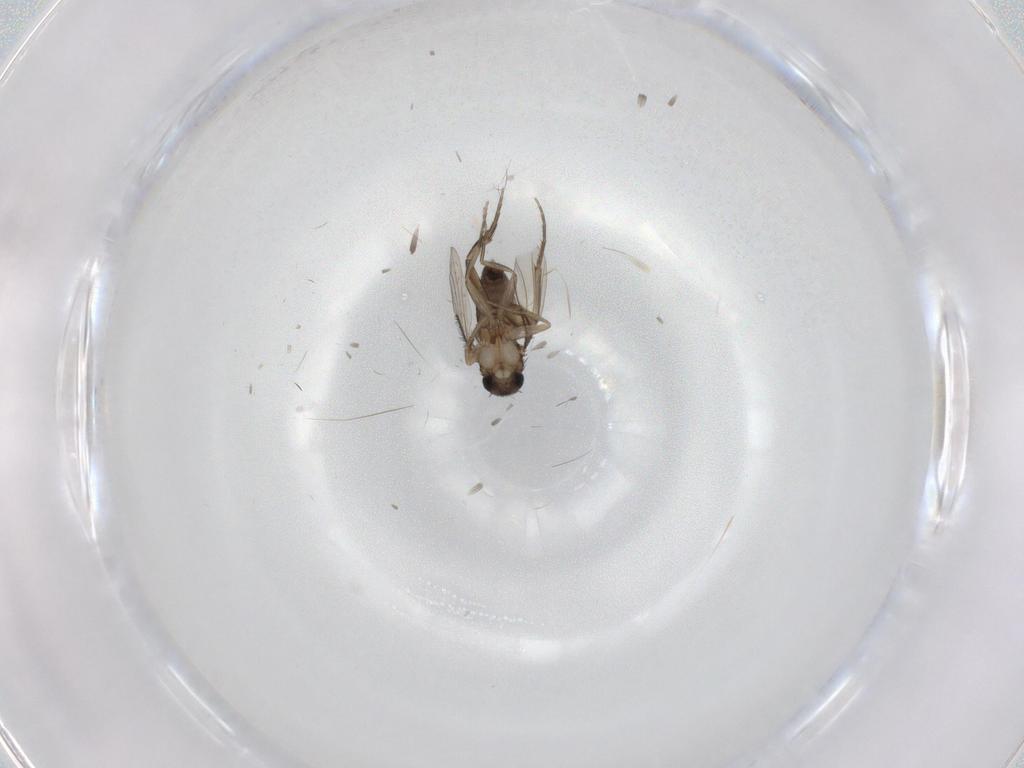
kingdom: Animalia
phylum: Arthropoda
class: Insecta
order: Diptera
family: Phoridae
